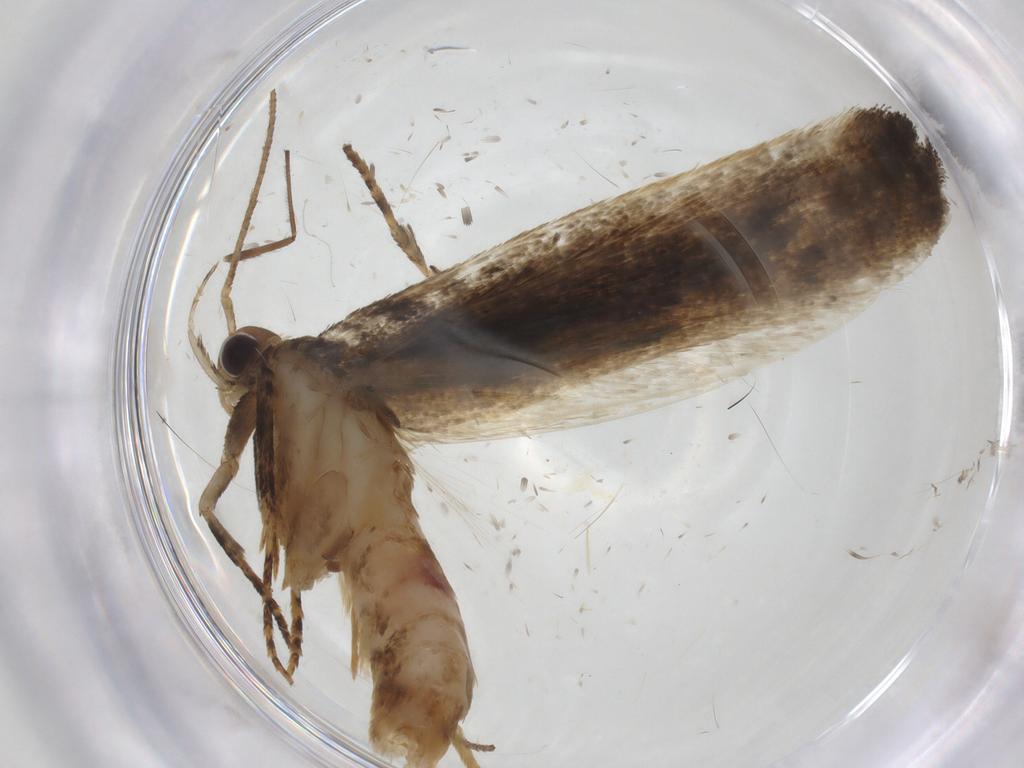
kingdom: Animalia
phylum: Arthropoda
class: Insecta
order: Lepidoptera
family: Gelechiidae
